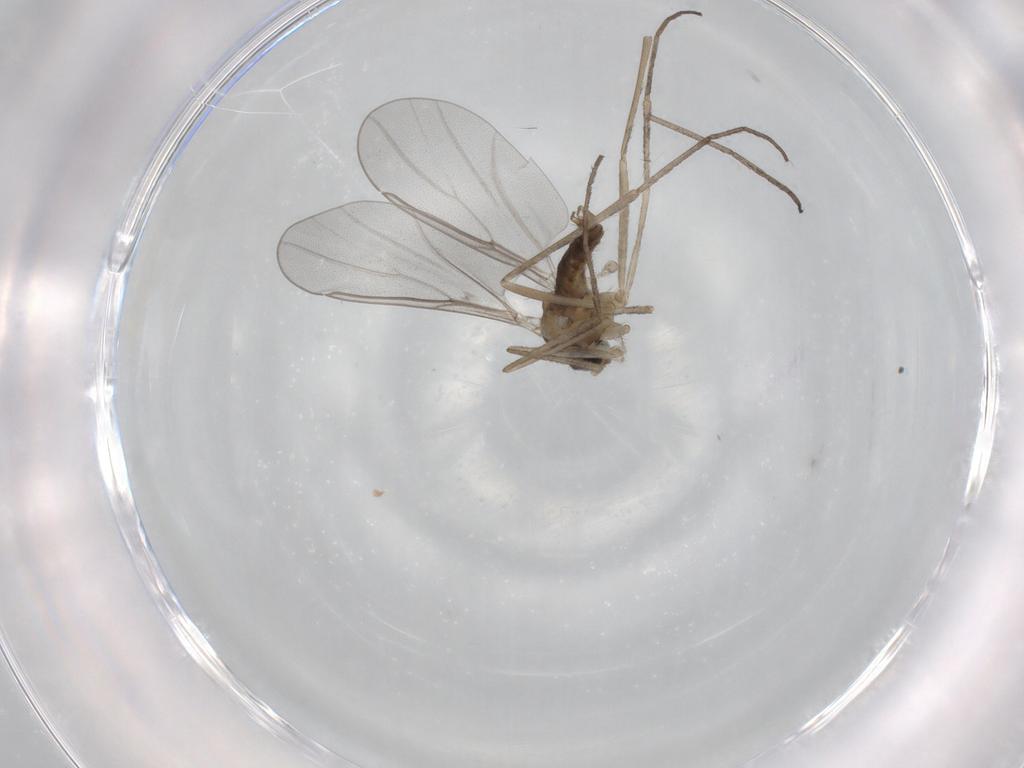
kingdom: Animalia
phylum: Arthropoda
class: Insecta
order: Diptera
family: Cecidomyiidae
